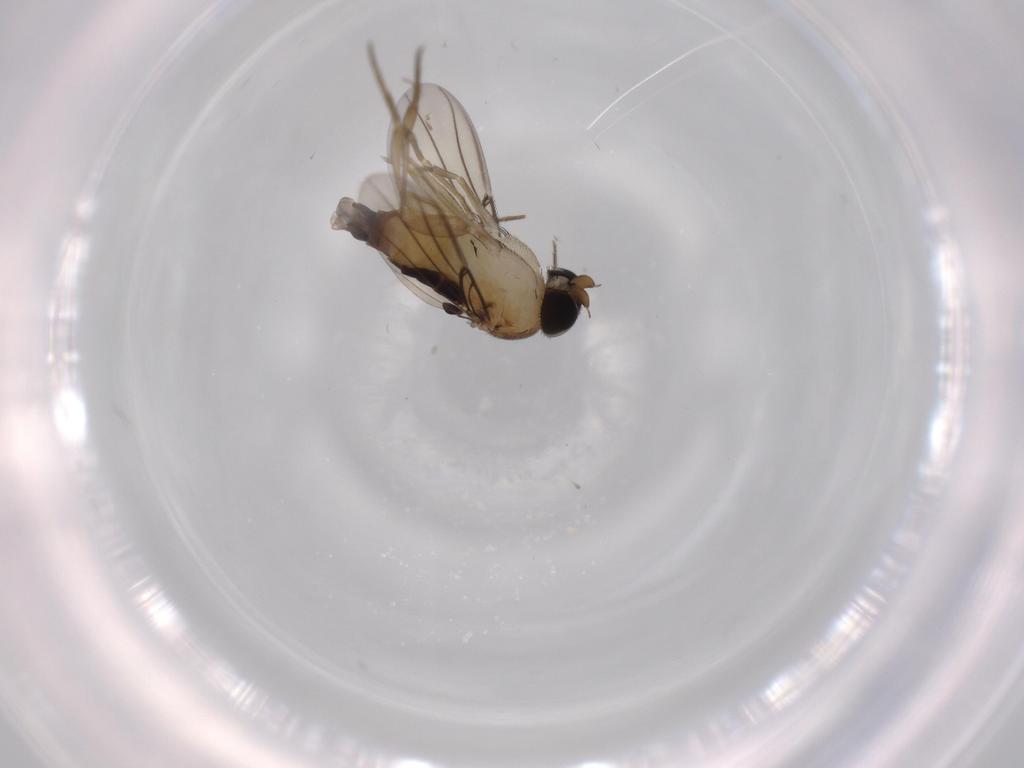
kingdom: Animalia
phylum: Arthropoda
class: Insecta
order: Diptera
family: Phoridae
